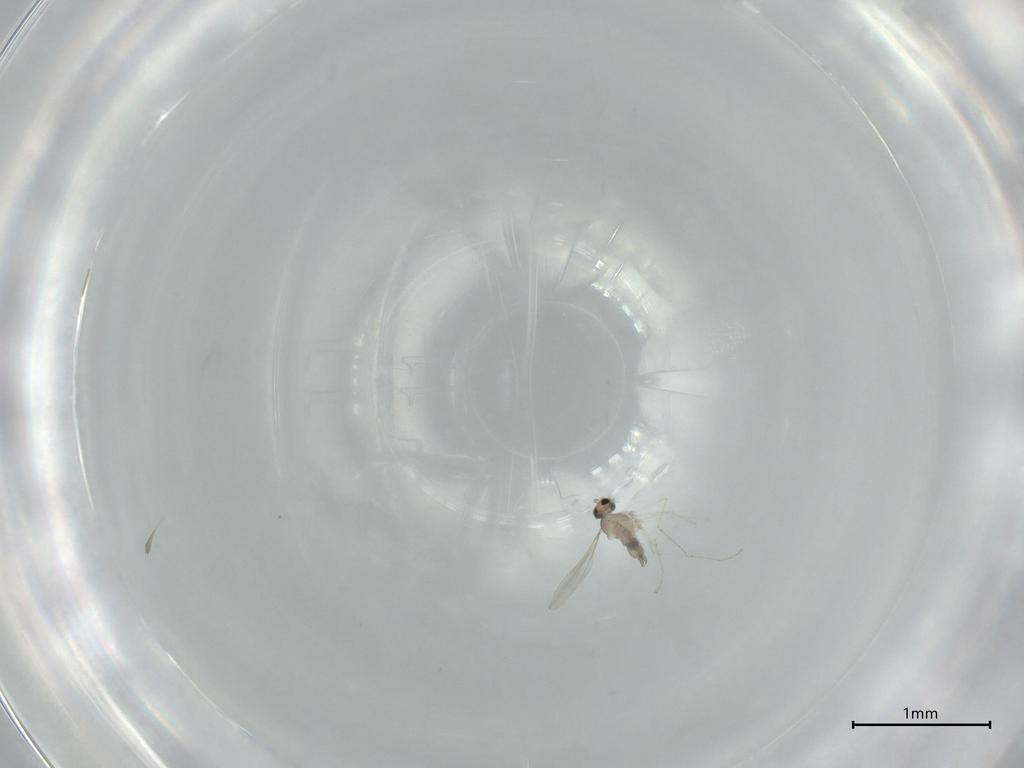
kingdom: Animalia
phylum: Arthropoda
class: Insecta
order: Diptera
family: Cecidomyiidae
